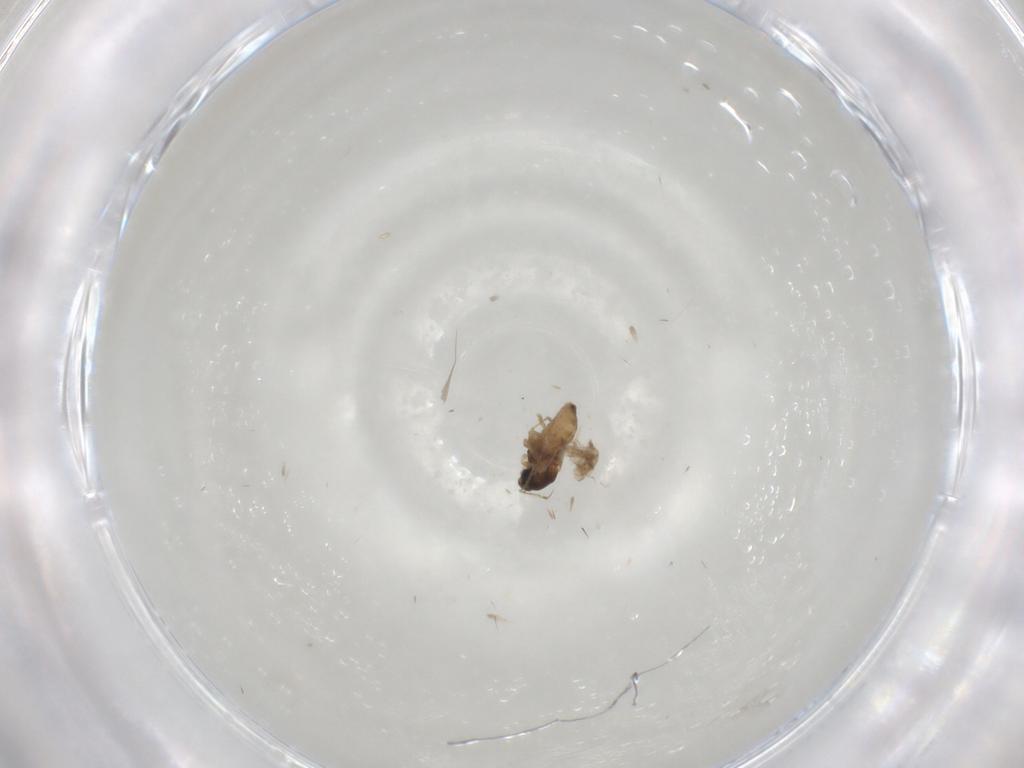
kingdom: Animalia
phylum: Arthropoda
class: Insecta
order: Diptera
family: Cecidomyiidae
